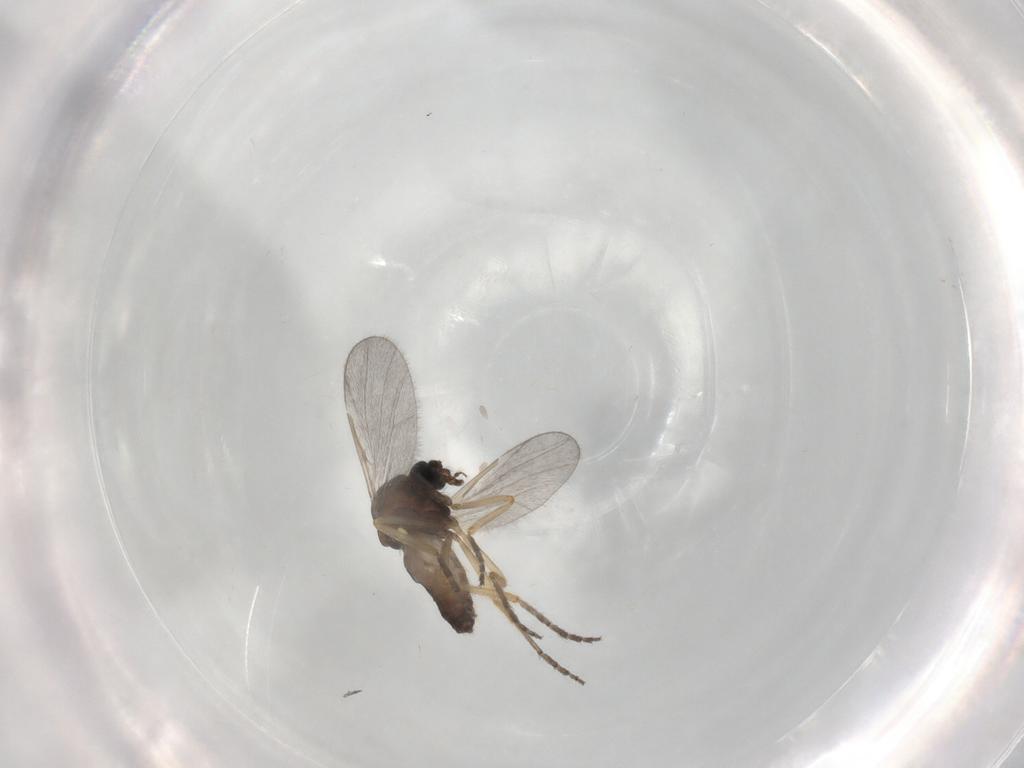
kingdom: Animalia
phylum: Arthropoda
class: Insecta
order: Diptera
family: Ceratopogonidae
